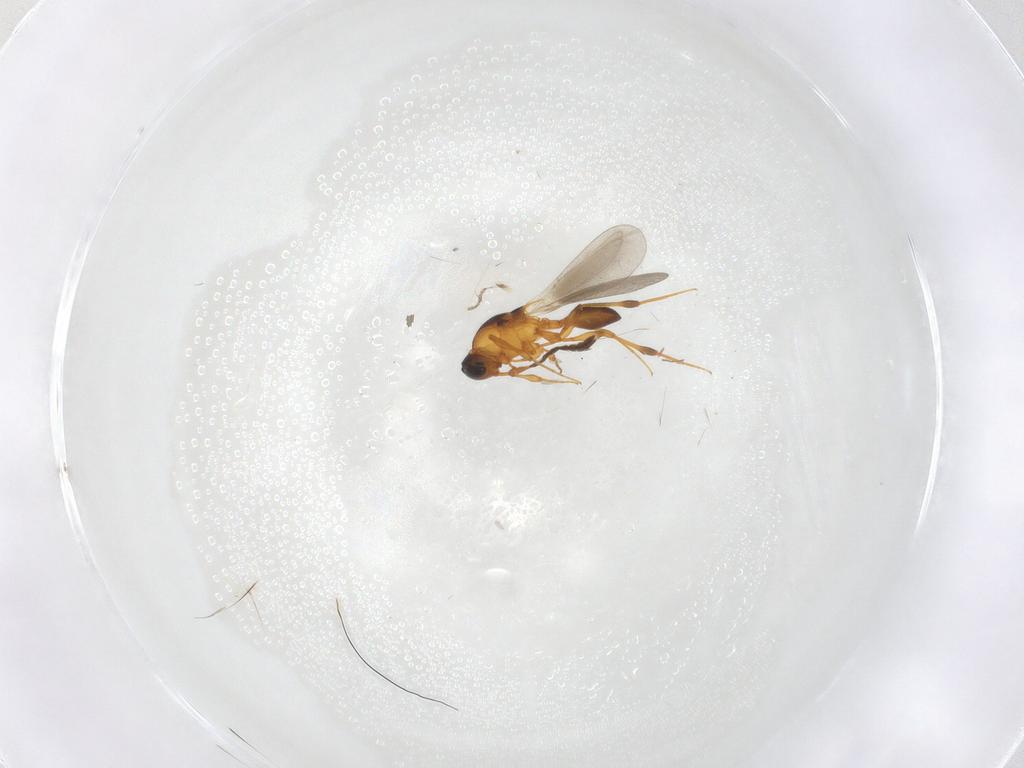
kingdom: Animalia
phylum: Arthropoda
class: Insecta
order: Hymenoptera
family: Platygastridae
